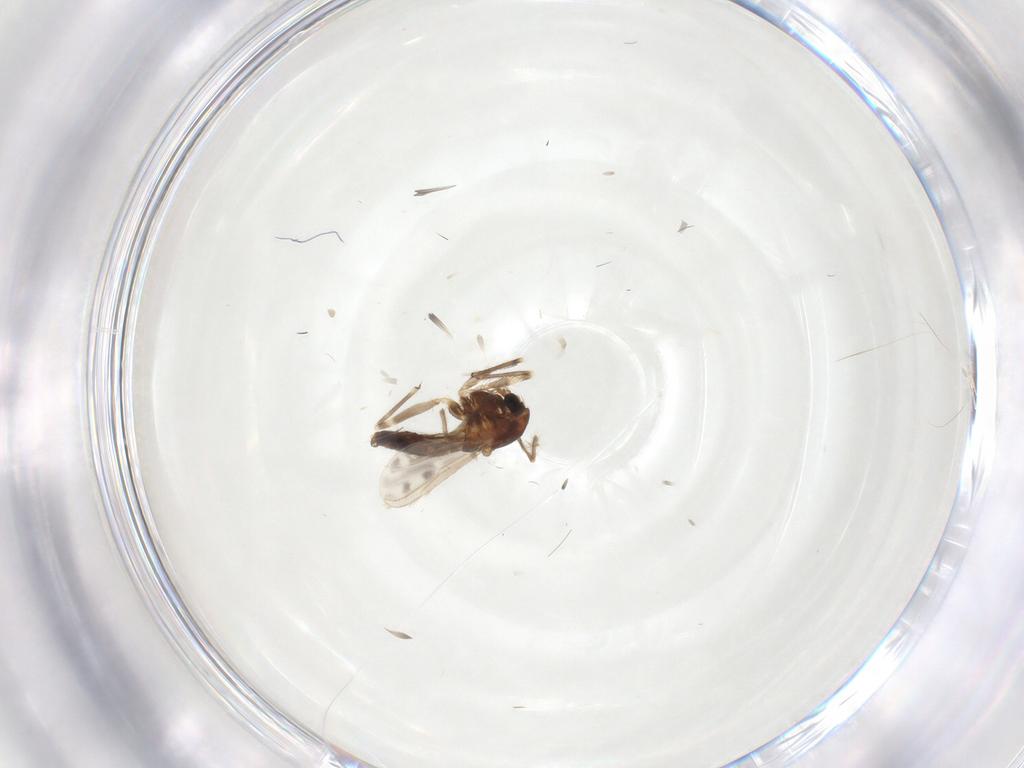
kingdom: Animalia
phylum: Arthropoda
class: Insecta
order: Diptera
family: Chironomidae
